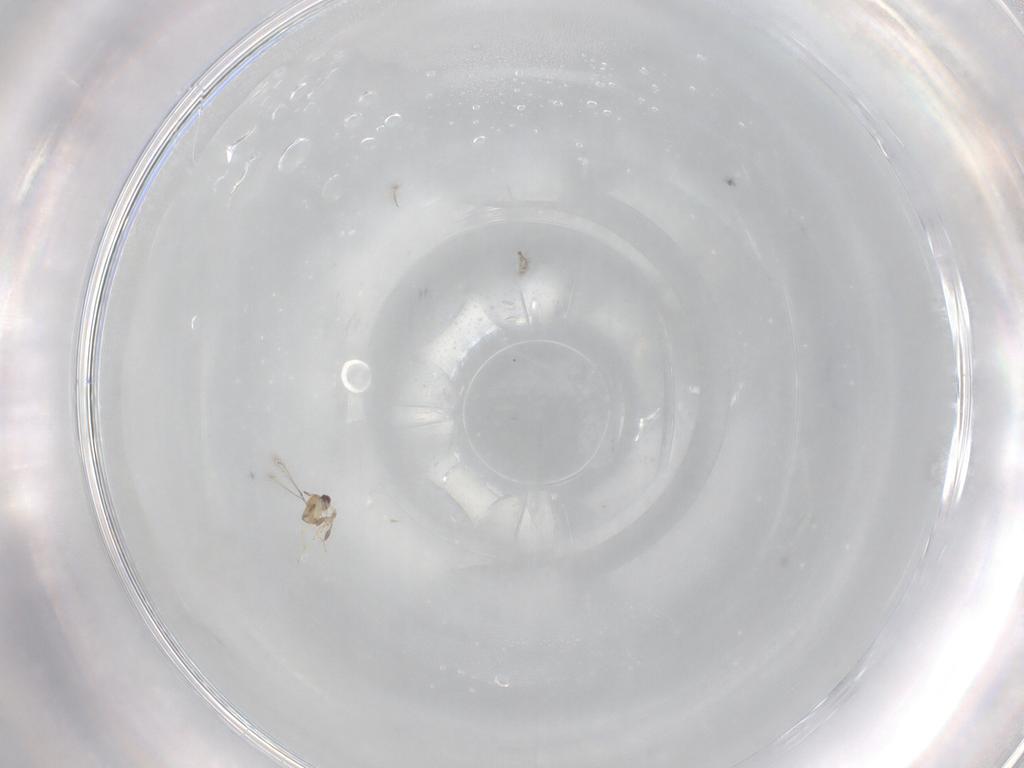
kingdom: Animalia
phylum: Arthropoda
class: Insecta
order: Hymenoptera
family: Mymaridae
